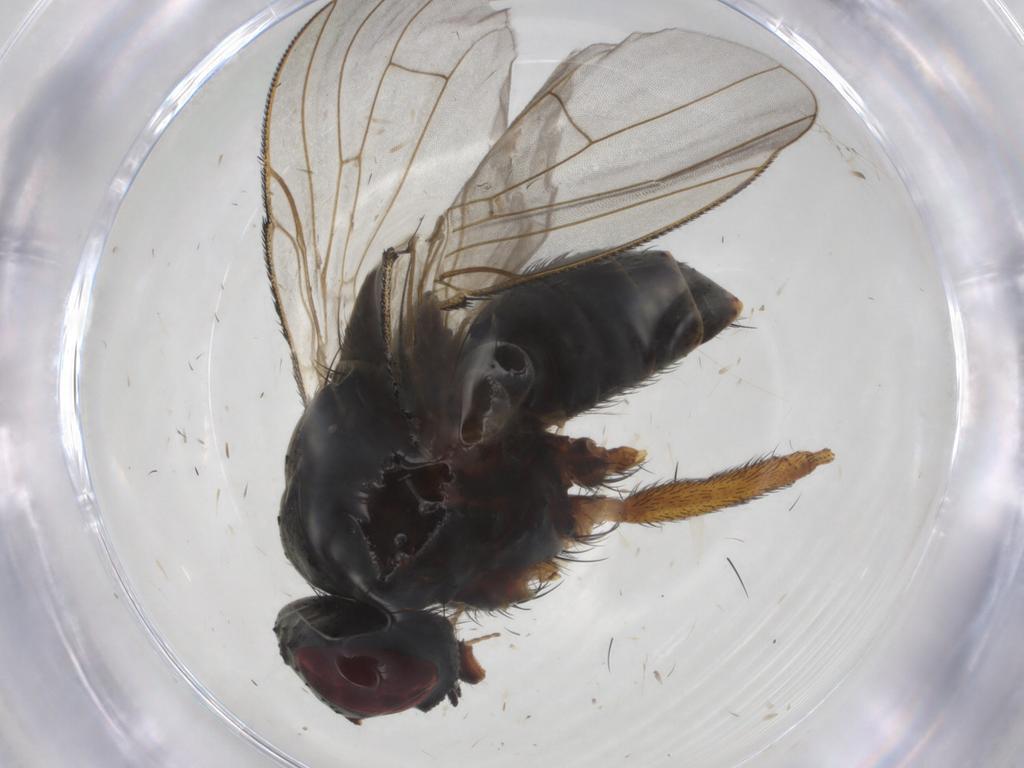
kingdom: Animalia
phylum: Arthropoda
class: Insecta
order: Diptera
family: Muscidae
